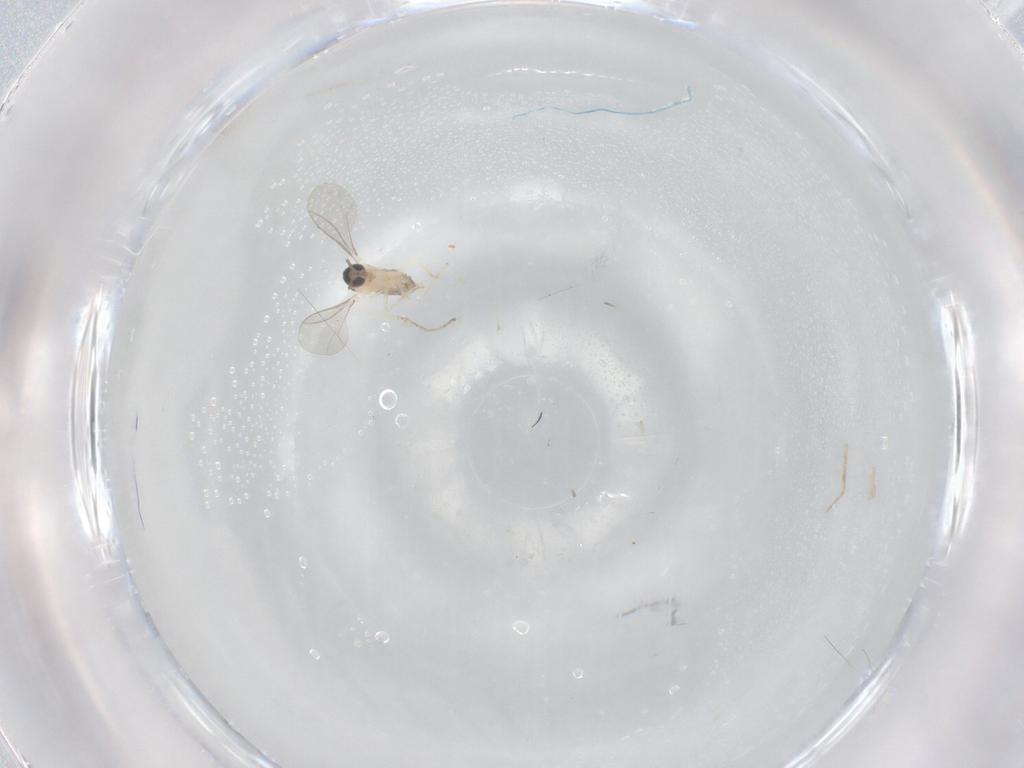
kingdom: Animalia
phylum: Arthropoda
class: Insecta
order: Diptera
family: Cecidomyiidae
